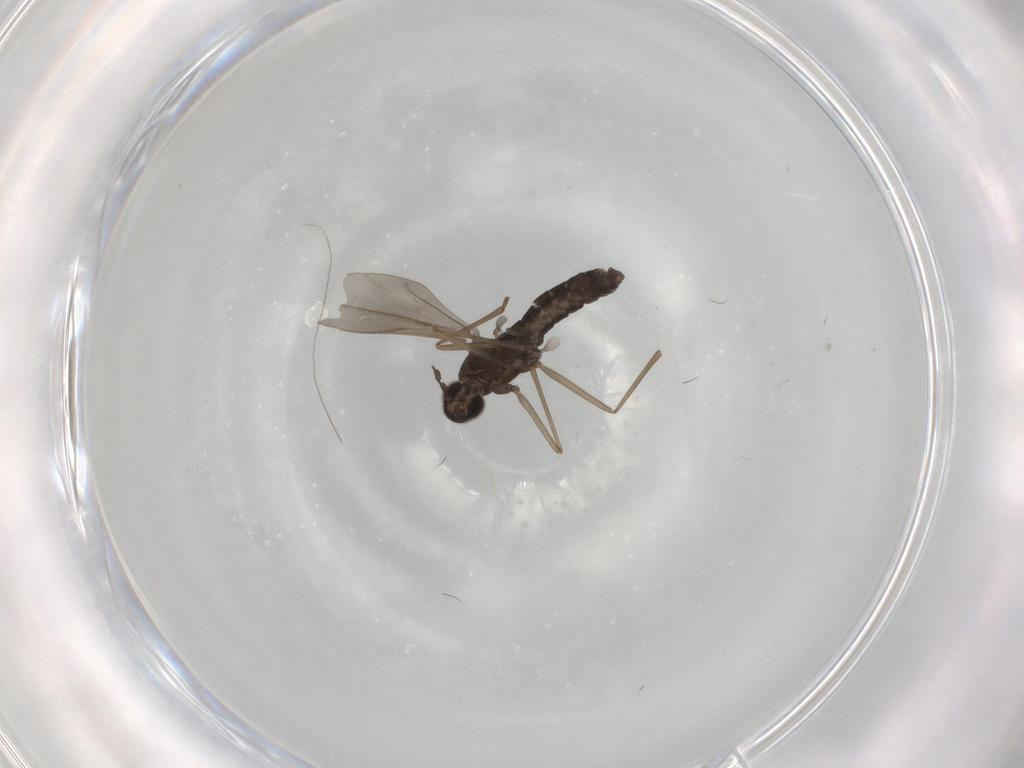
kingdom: Animalia
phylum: Arthropoda
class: Insecta
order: Diptera
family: Cecidomyiidae
